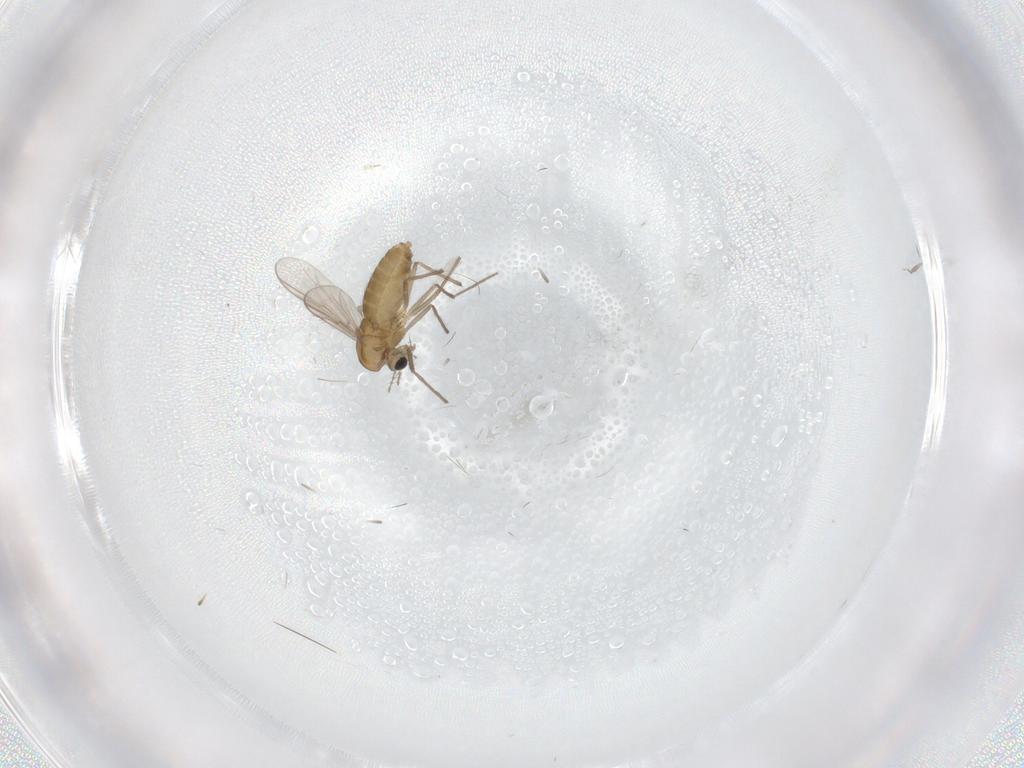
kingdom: Animalia
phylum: Arthropoda
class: Insecta
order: Diptera
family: Chironomidae
